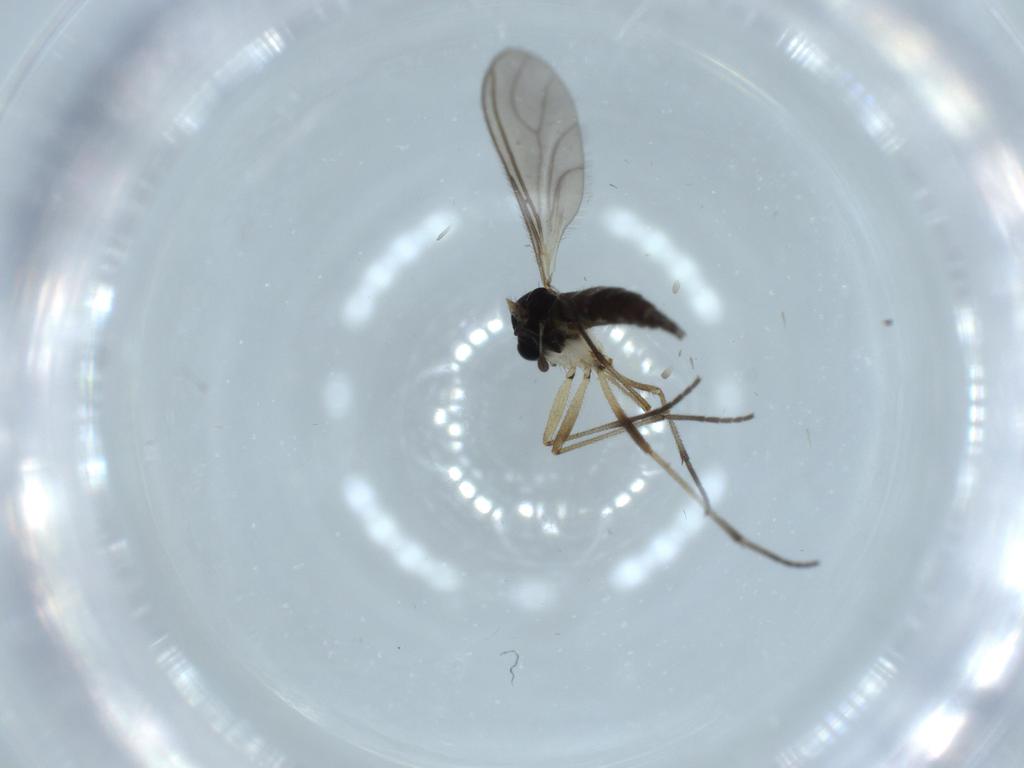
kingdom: Animalia
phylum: Arthropoda
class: Insecta
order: Diptera
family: Sciaridae
